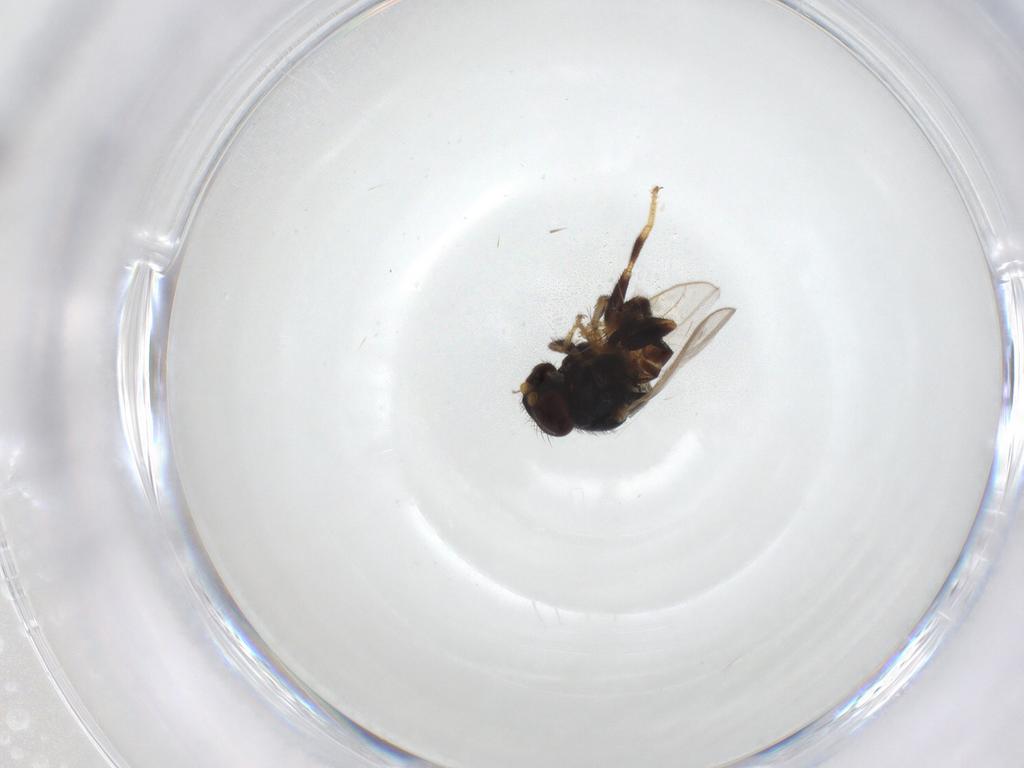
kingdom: Animalia
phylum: Arthropoda
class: Insecta
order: Diptera
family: Chloropidae
